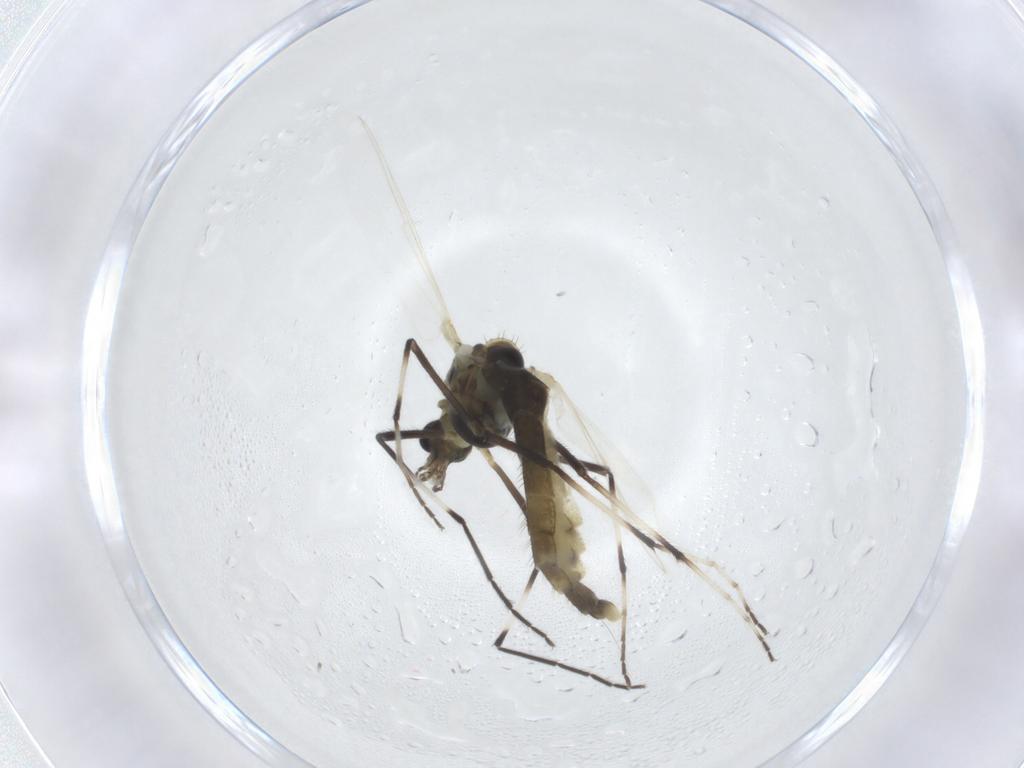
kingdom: Animalia
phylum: Arthropoda
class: Insecta
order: Diptera
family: Chironomidae
